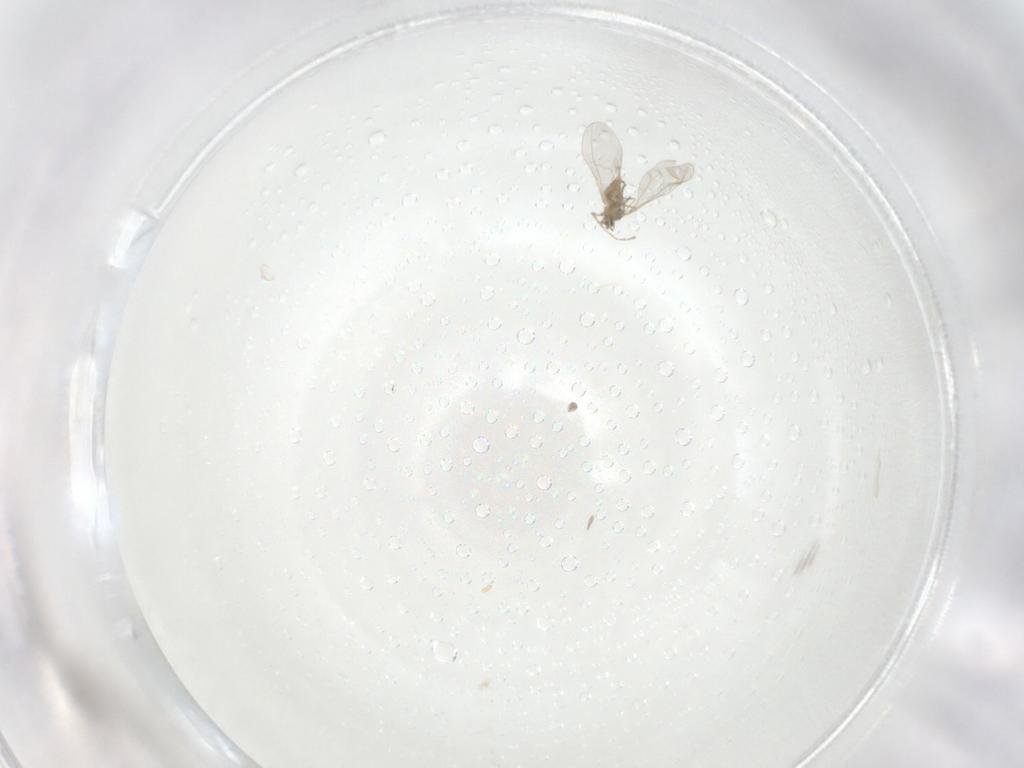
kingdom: Animalia
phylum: Arthropoda
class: Insecta
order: Diptera
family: Cecidomyiidae
